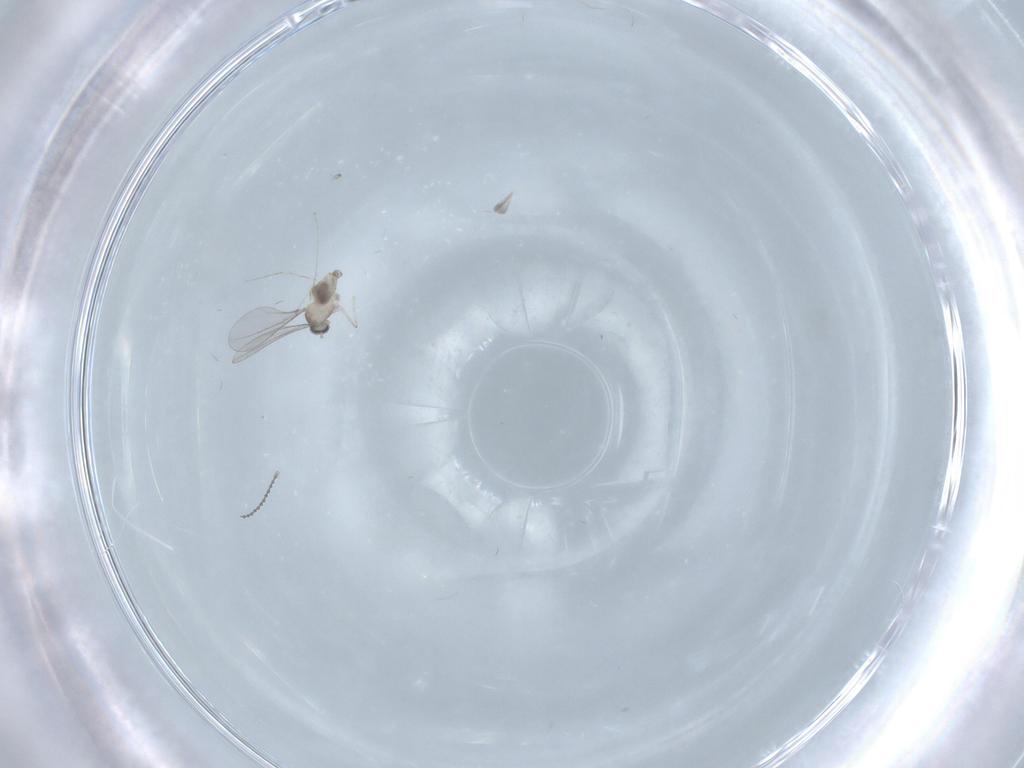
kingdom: Animalia
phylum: Arthropoda
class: Insecta
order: Diptera
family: Cecidomyiidae
